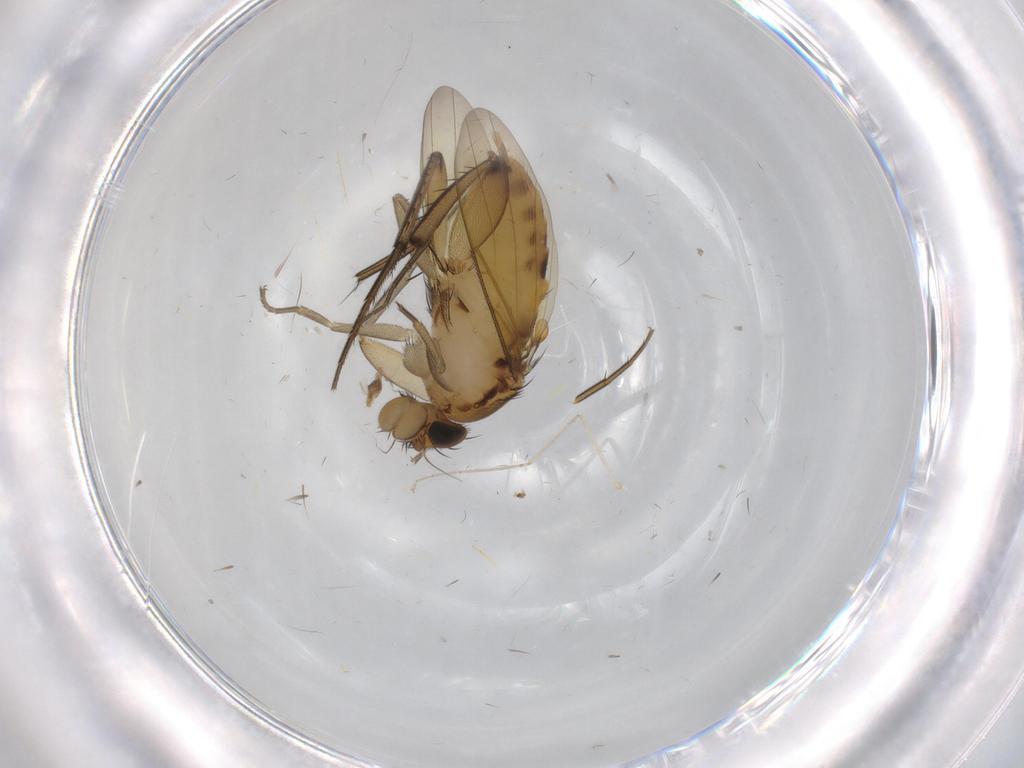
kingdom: Animalia
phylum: Arthropoda
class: Insecta
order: Diptera
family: Phoridae
